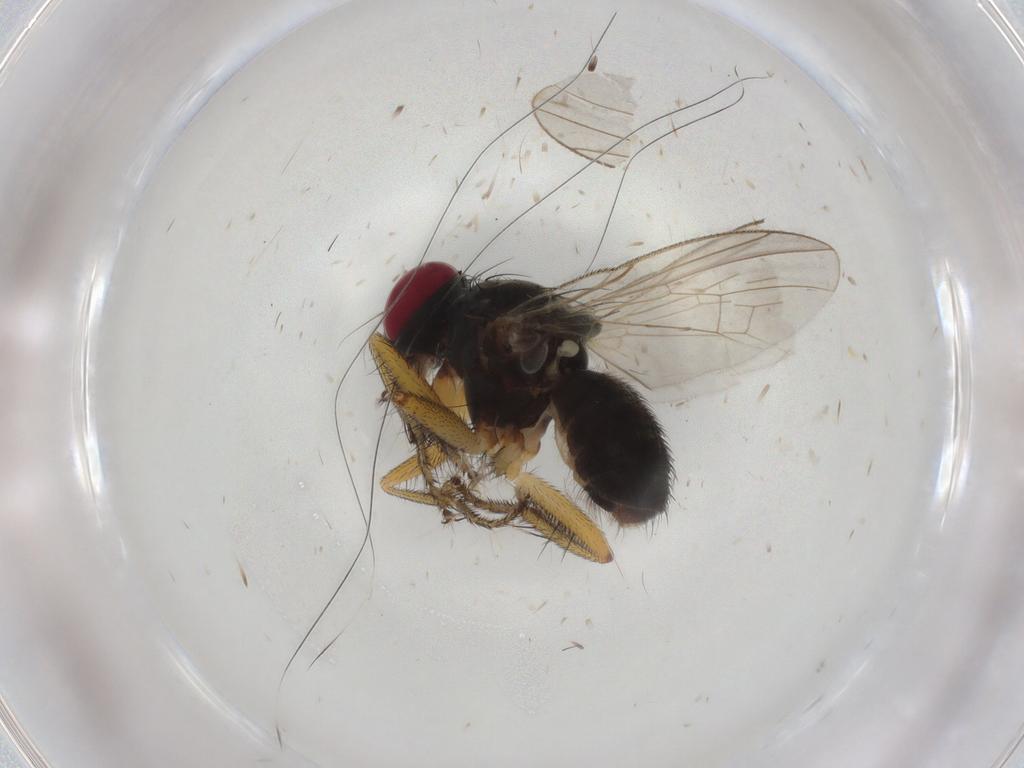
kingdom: Animalia
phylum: Arthropoda
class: Insecta
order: Diptera
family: Muscidae
